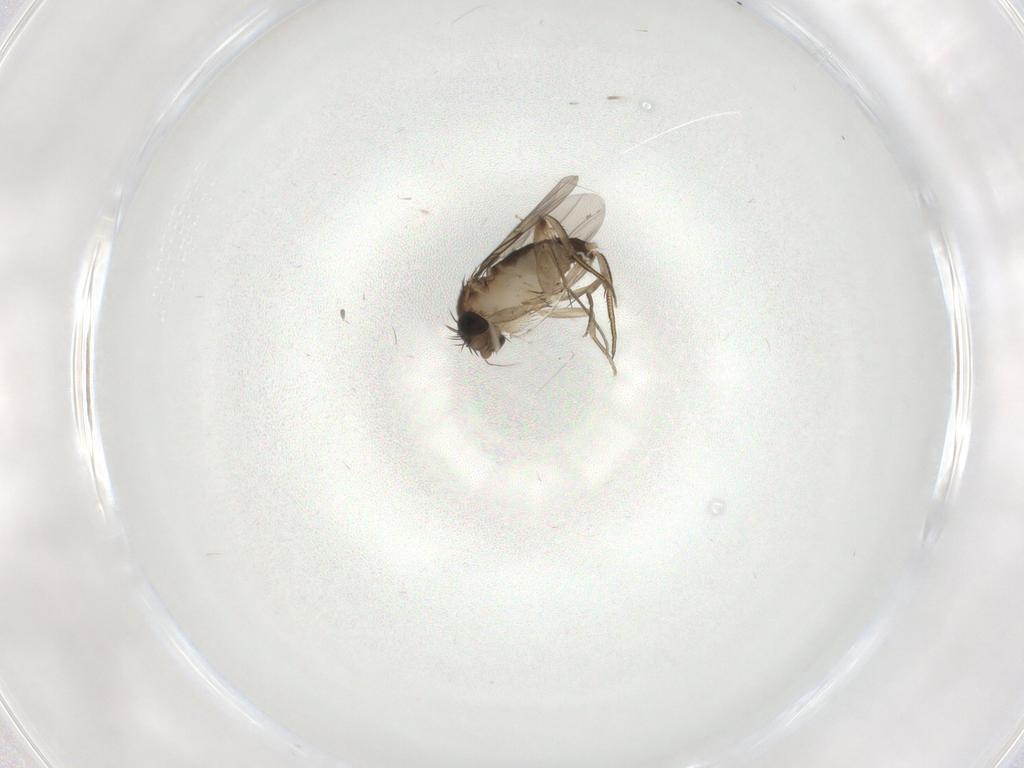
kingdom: Animalia
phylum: Arthropoda
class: Insecta
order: Diptera
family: Phoridae
